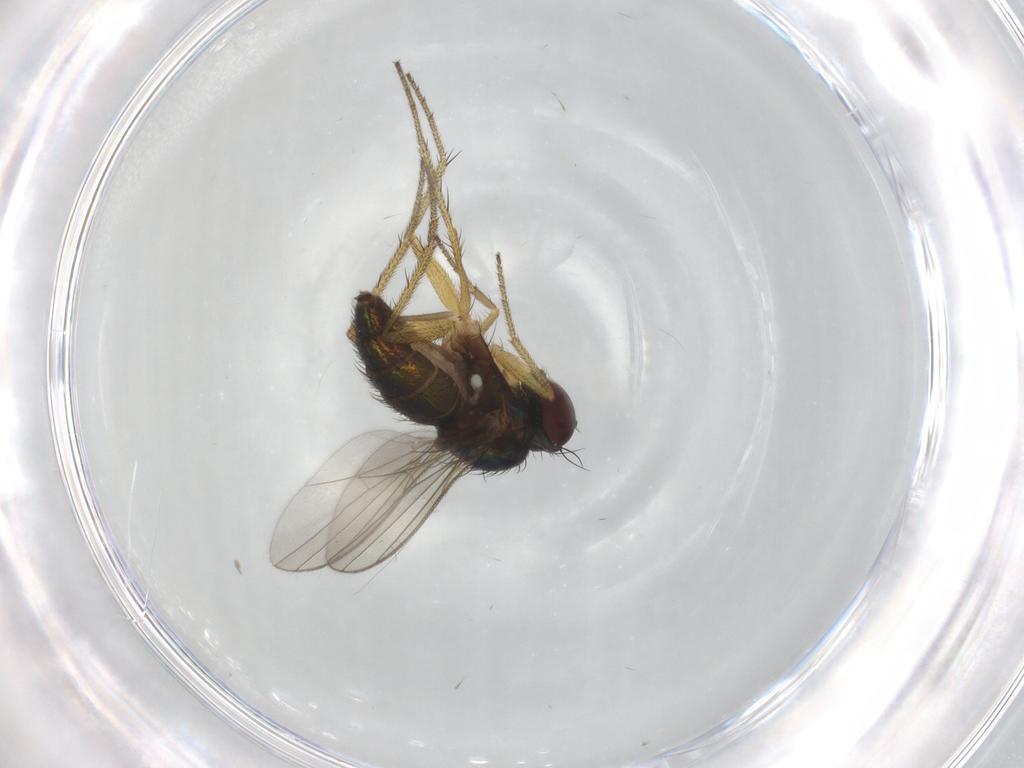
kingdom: Animalia
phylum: Arthropoda
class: Insecta
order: Diptera
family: Dolichopodidae
